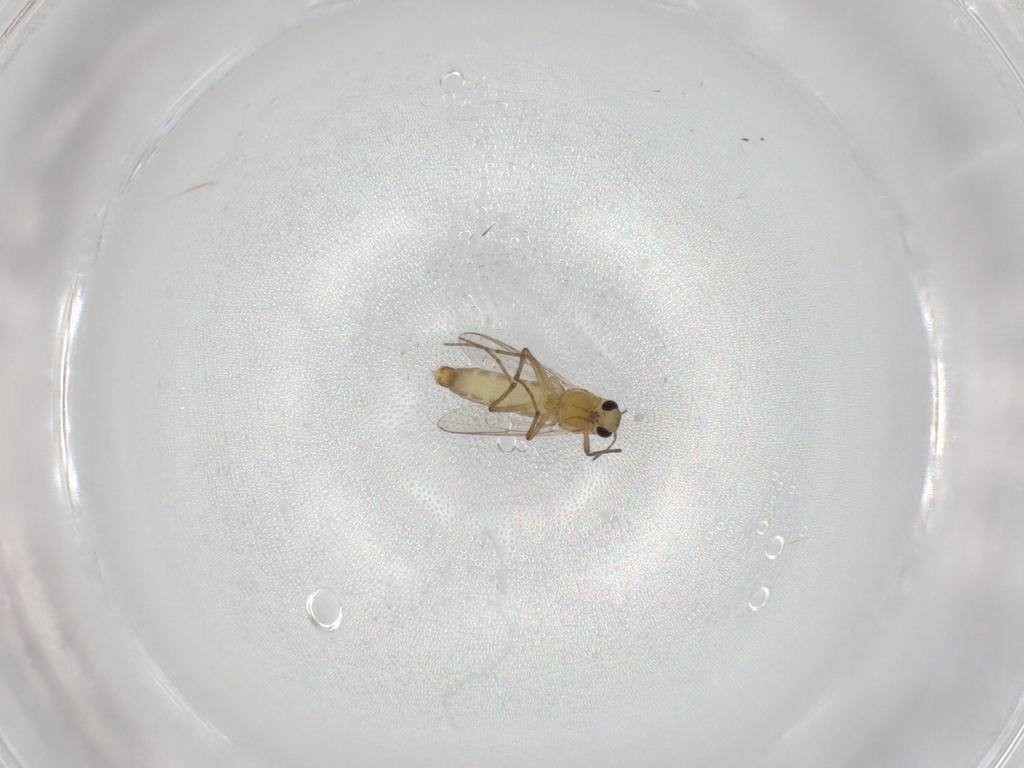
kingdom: Animalia
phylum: Arthropoda
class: Insecta
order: Diptera
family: Chironomidae
